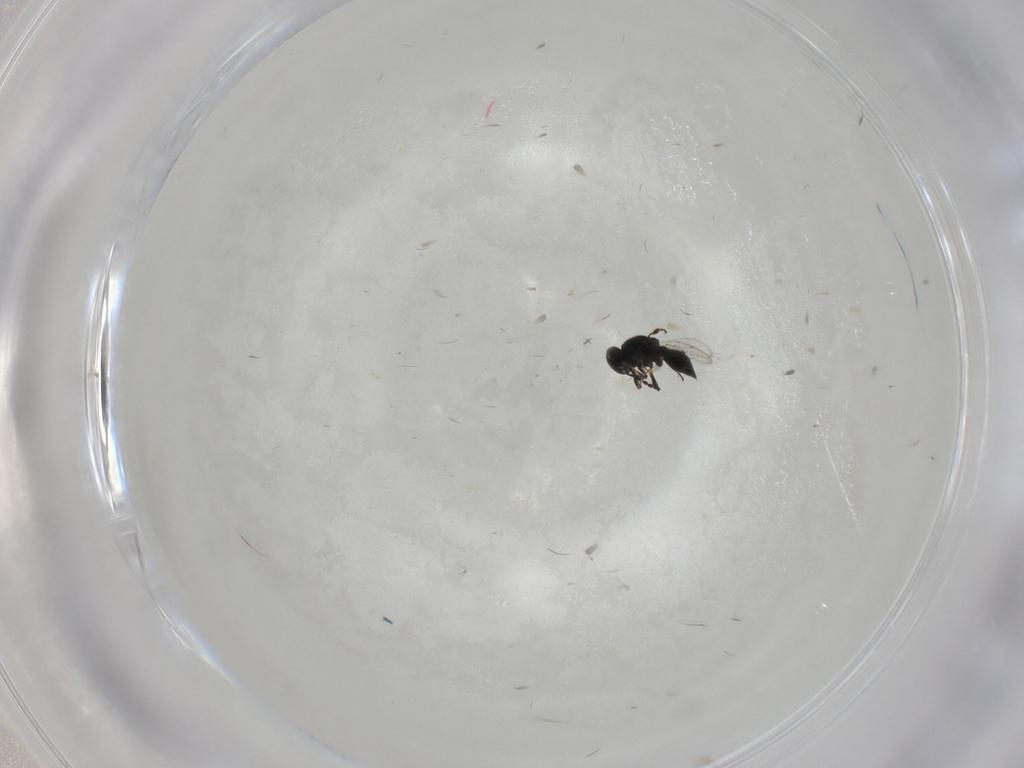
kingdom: Animalia
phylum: Arthropoda
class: Insecta
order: Hymenoptera
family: Platygastridae
